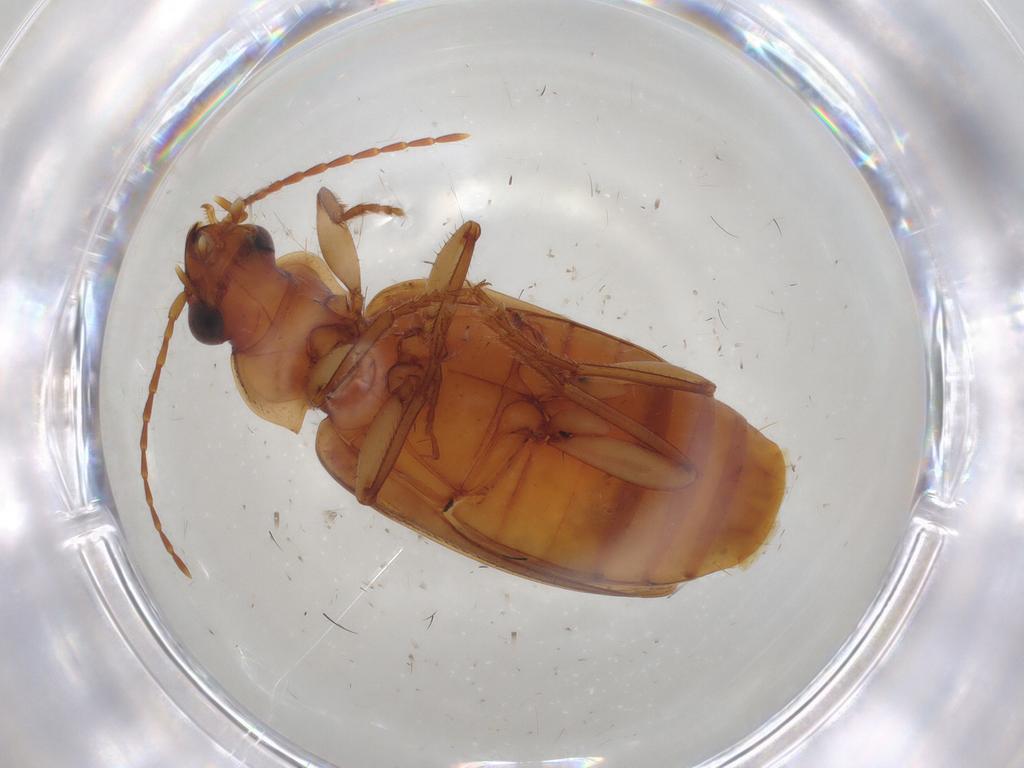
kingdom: Animalia
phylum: Arthropoda
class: Insecta
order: Coleoptera
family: Carabidae
